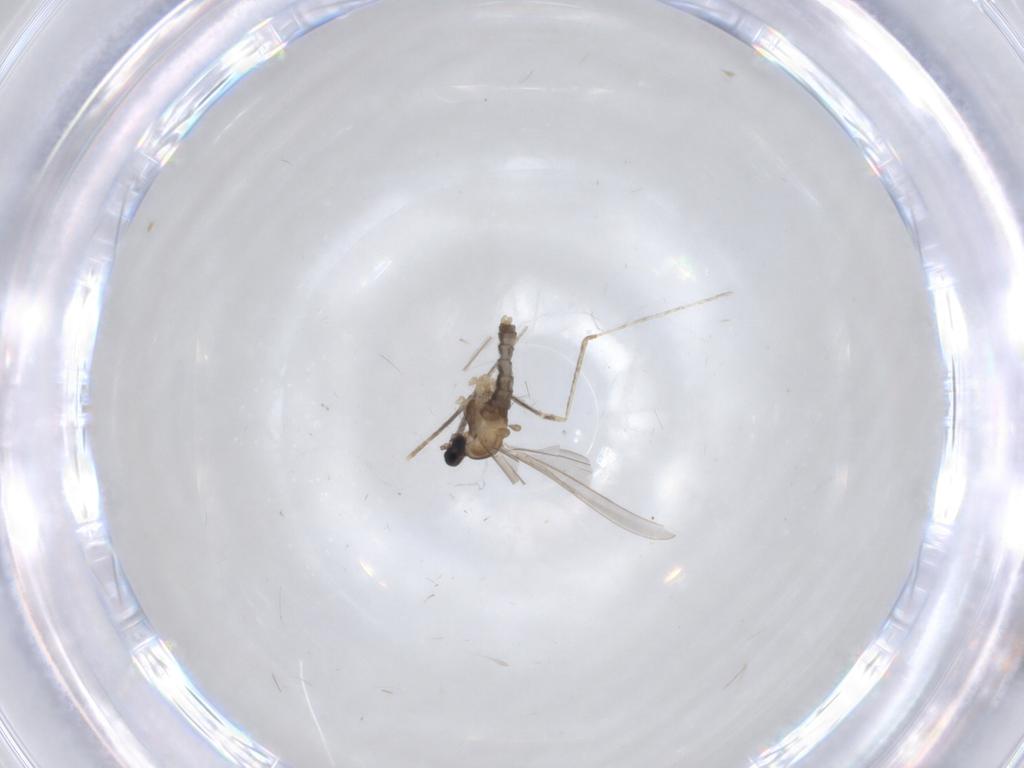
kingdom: Animalia
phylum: Arthropoda
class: Insecta
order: Diptera
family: Cecidomyiidae
